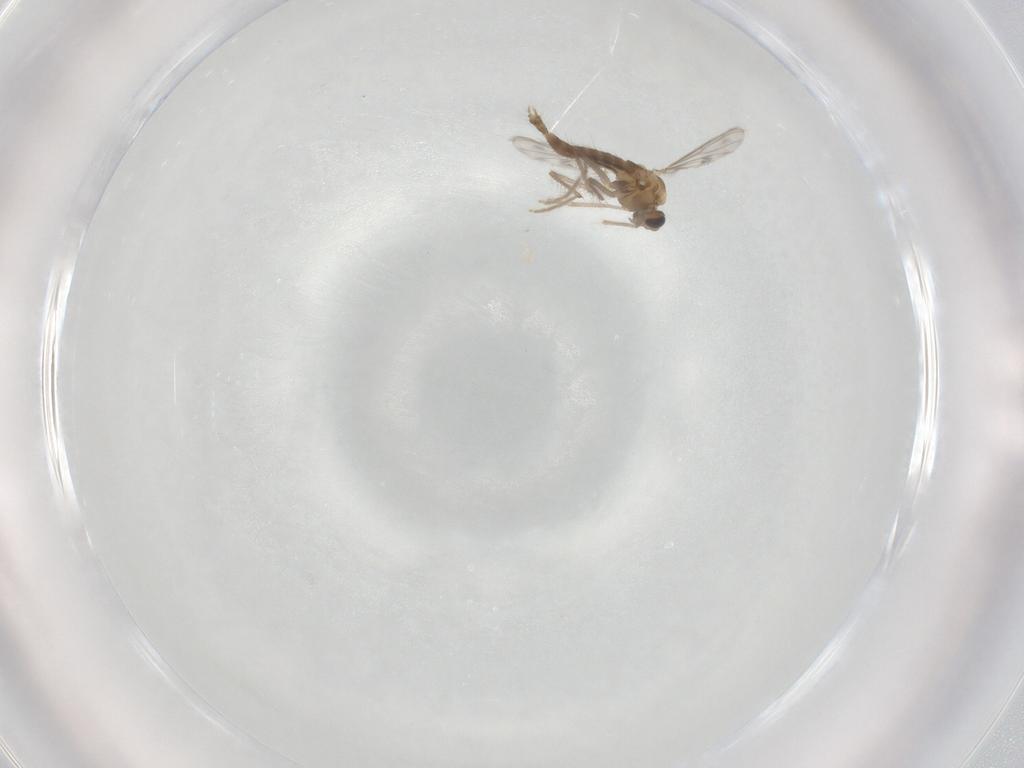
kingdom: Animalia
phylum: Arthropoda
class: Insecta
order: Diptera
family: Chironomidae
